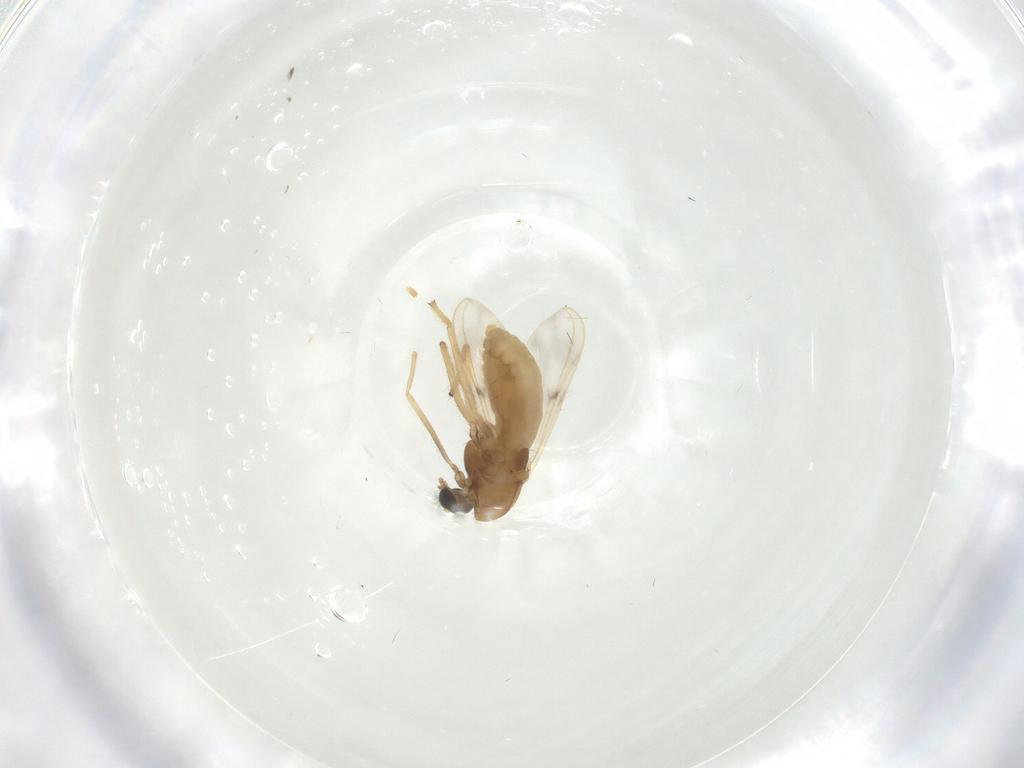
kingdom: Animalia
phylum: Arthropoda
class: Insecta
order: Diptera
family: Chironomidae
